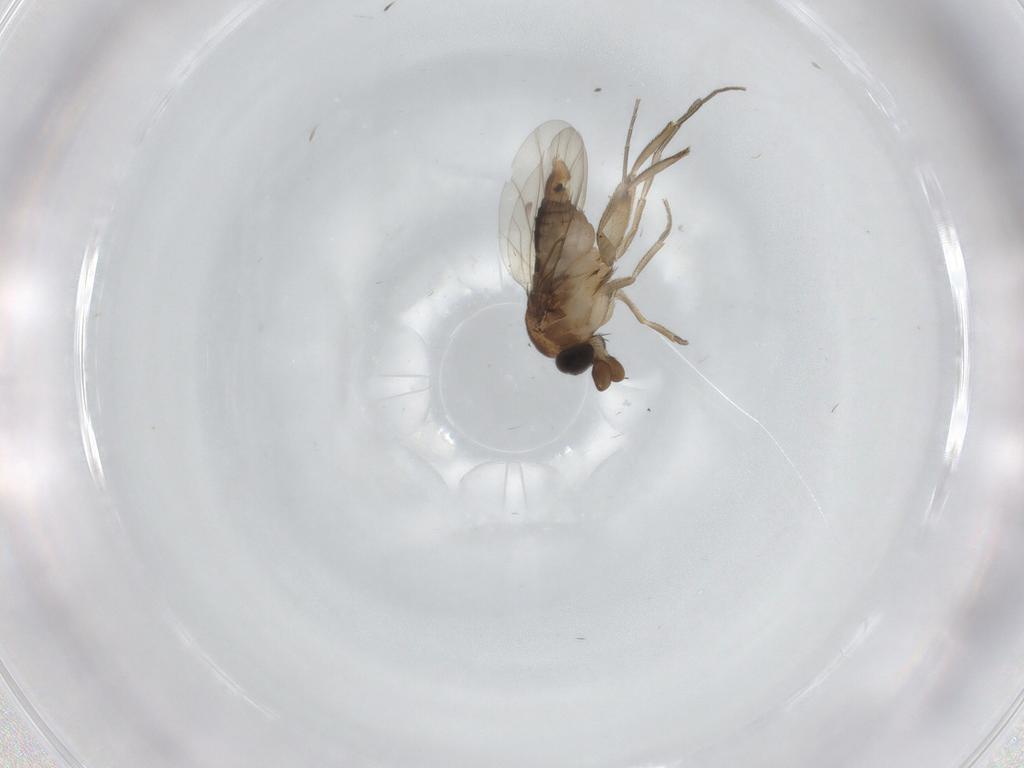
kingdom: Animalia
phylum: Arthropoda
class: Insecta
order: Diptera
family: Phoridae
